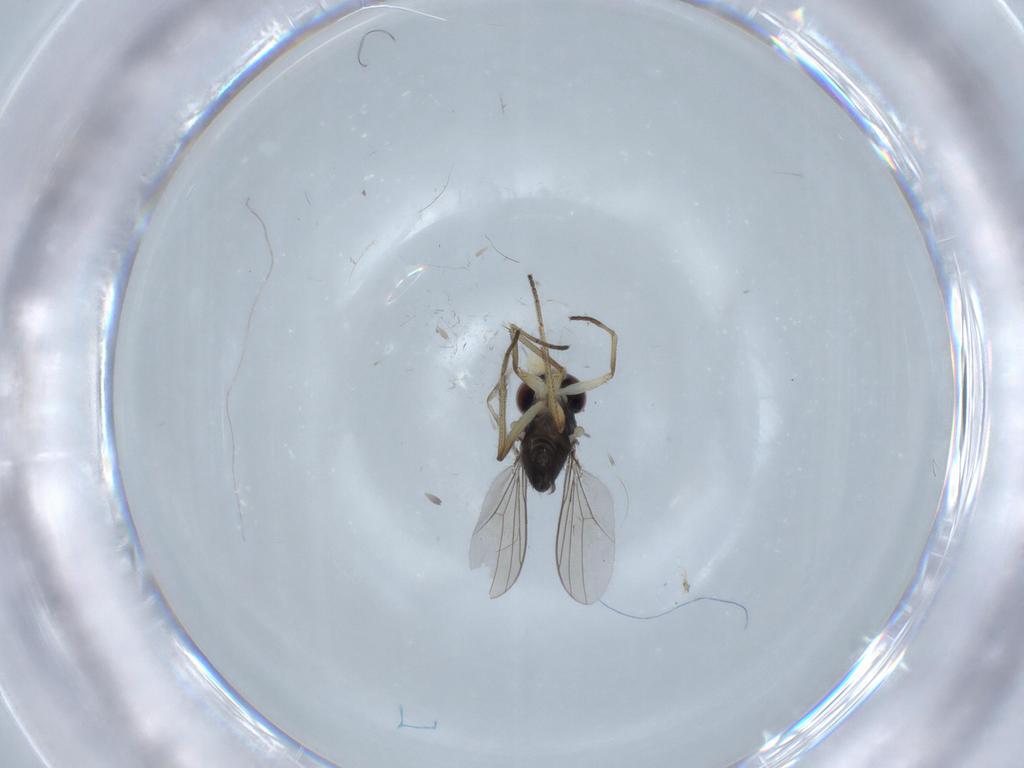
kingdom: Animalia
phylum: Arthropoda
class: Insecta
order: Diptera
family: Dolichopodidae
